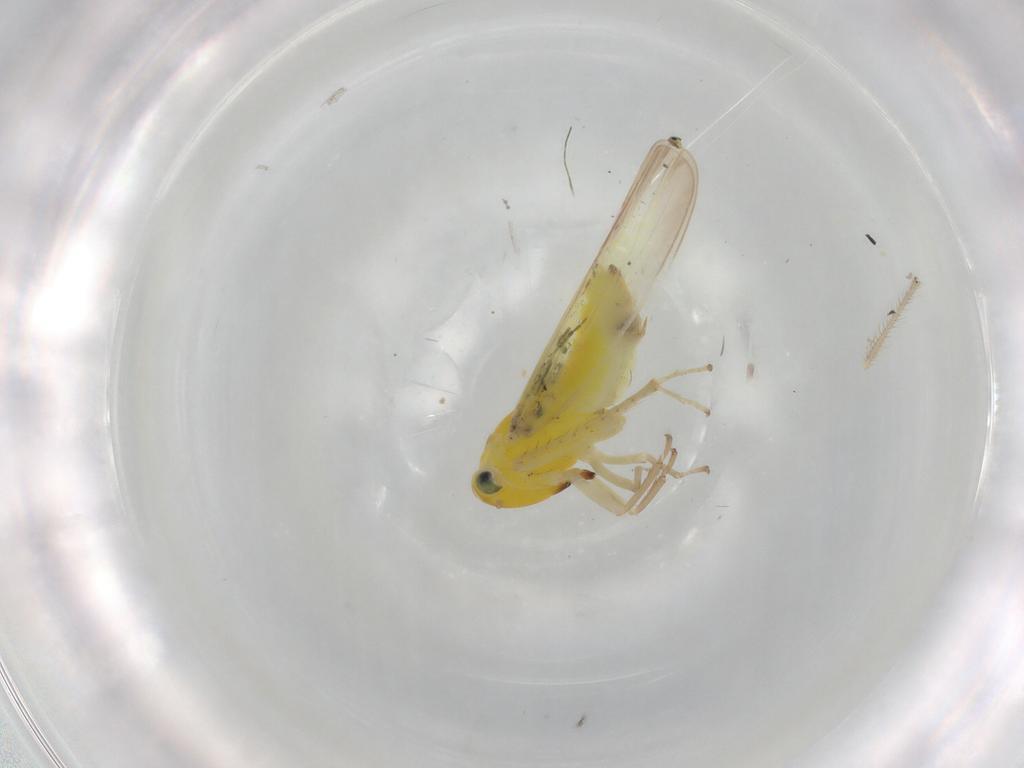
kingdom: Animalia
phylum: Arthropoda
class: Insecta
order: Hemiptera
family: Cicadellidae
